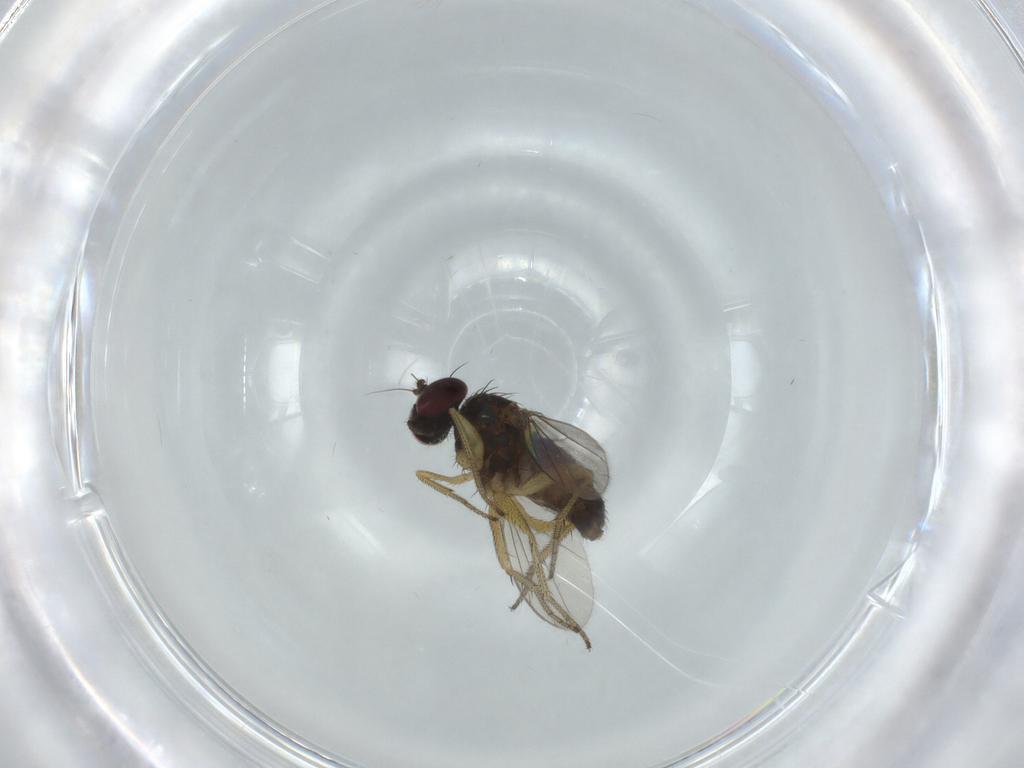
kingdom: Animalia
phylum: Arthropoda
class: Insecta
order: Diptera
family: Dolichopodidae
